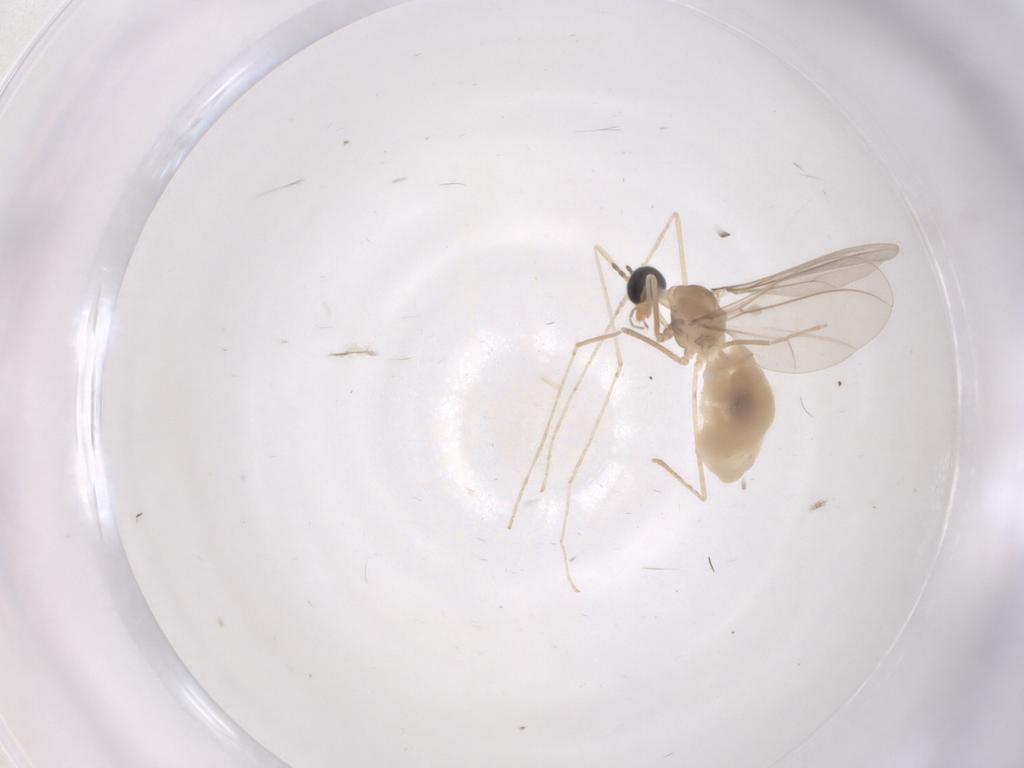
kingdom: Animalia
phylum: Arthropoda
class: Insecta
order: Diptera
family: Cecidomyiidae
